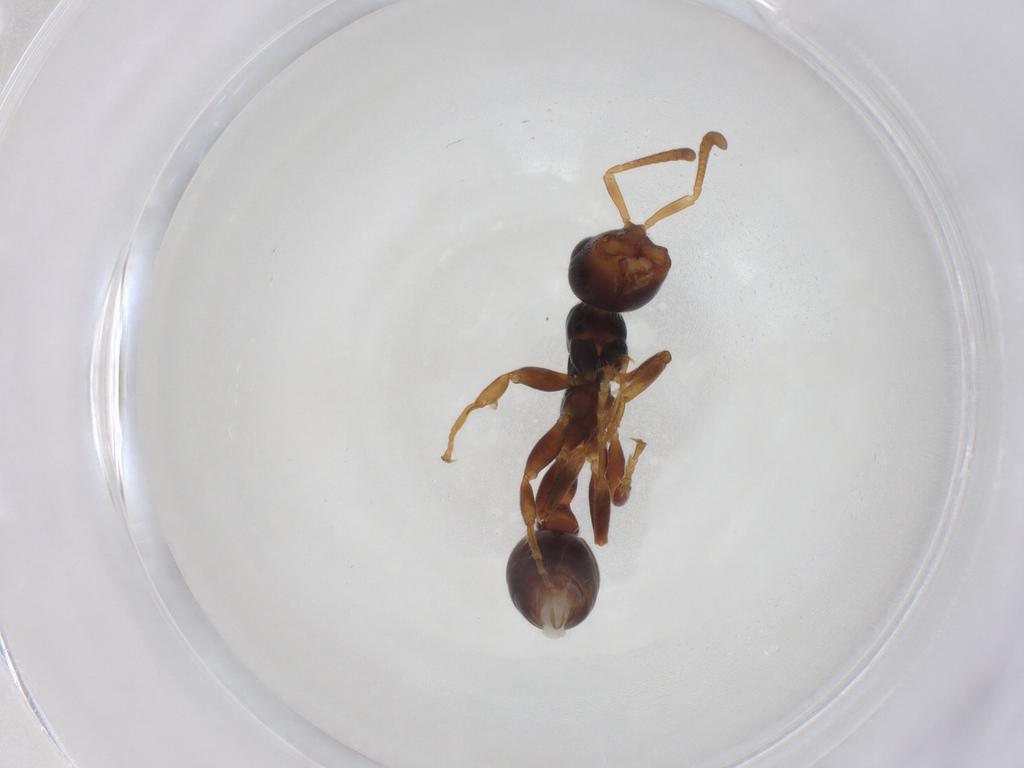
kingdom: Animalia
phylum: Arthropoda
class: Insecta
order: Hymenoptera
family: Formicidae
